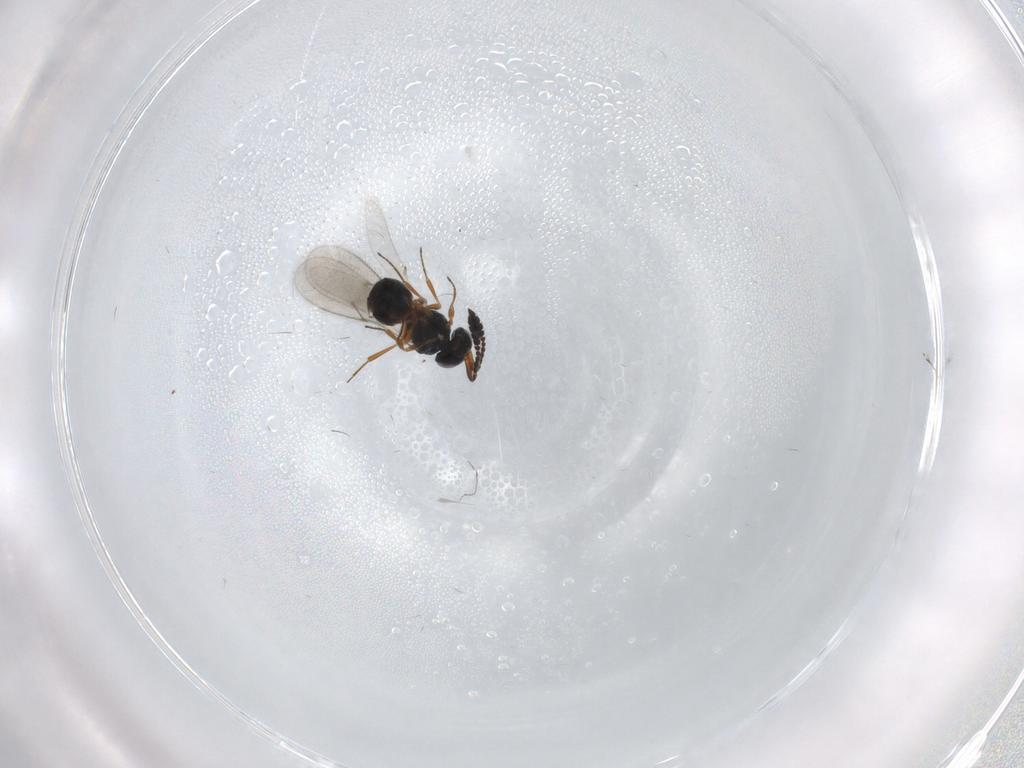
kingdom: Animalia
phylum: Arthropoda
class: Insecta
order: Hymenoptera
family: Scelionidae
